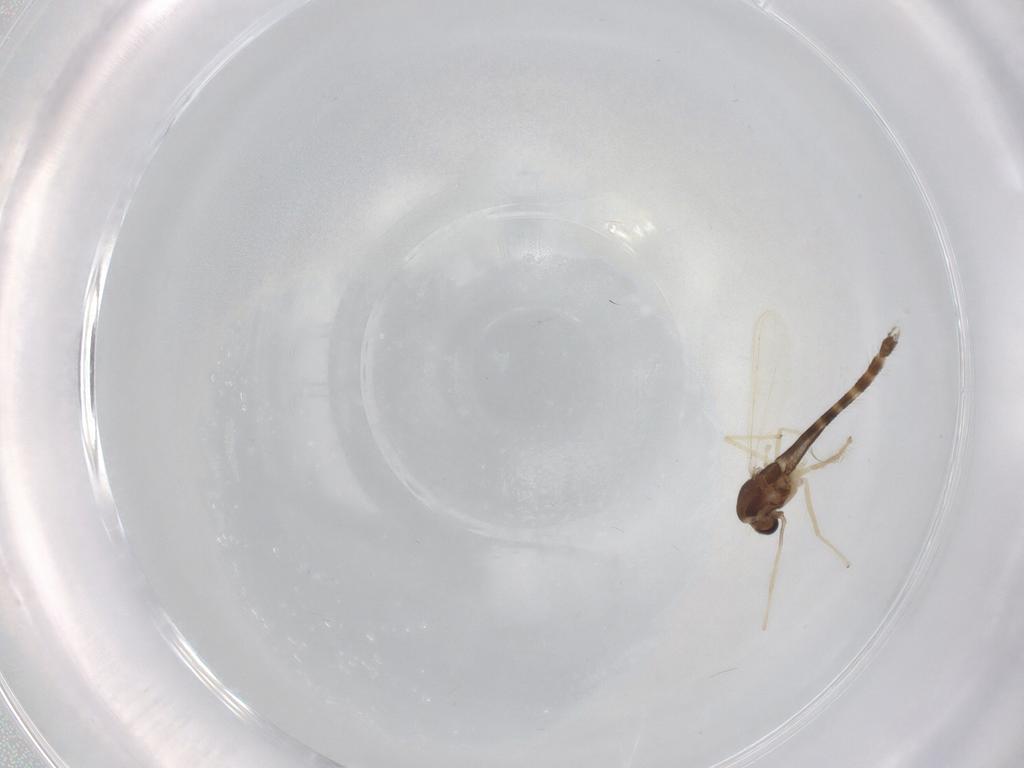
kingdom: Animalia
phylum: Arthropoda
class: Insecta
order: Diptera
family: Chironomidae
